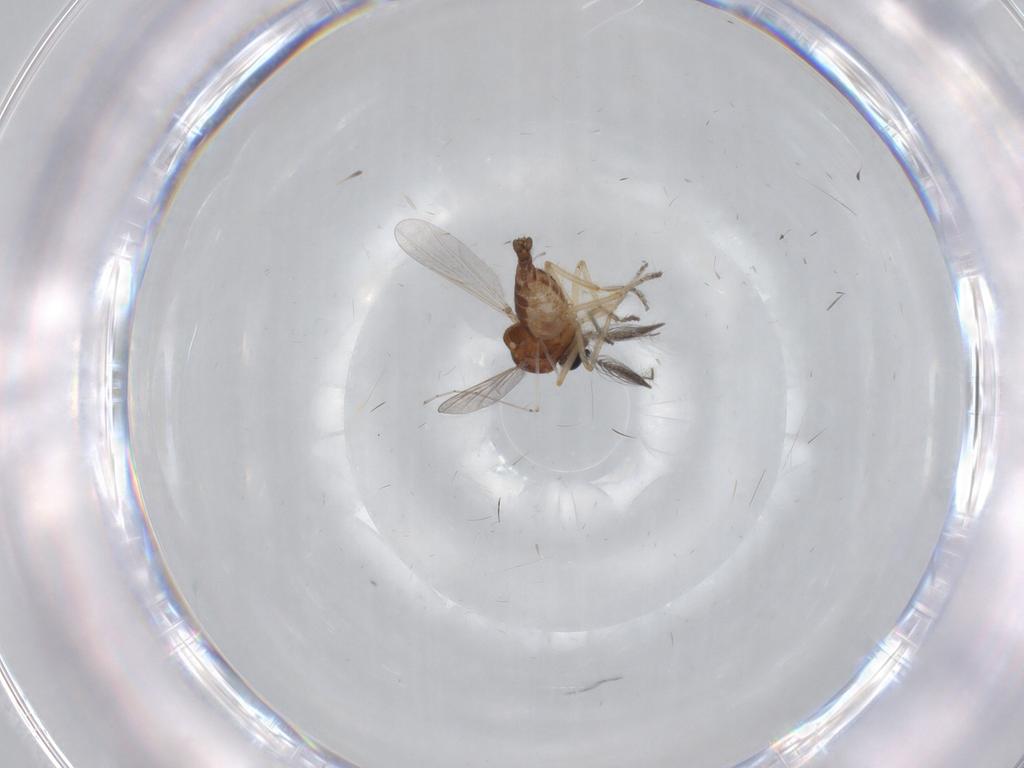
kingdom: Animalia
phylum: Arthropoda
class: Insecta
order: Diptera
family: Ceratopogonidae
